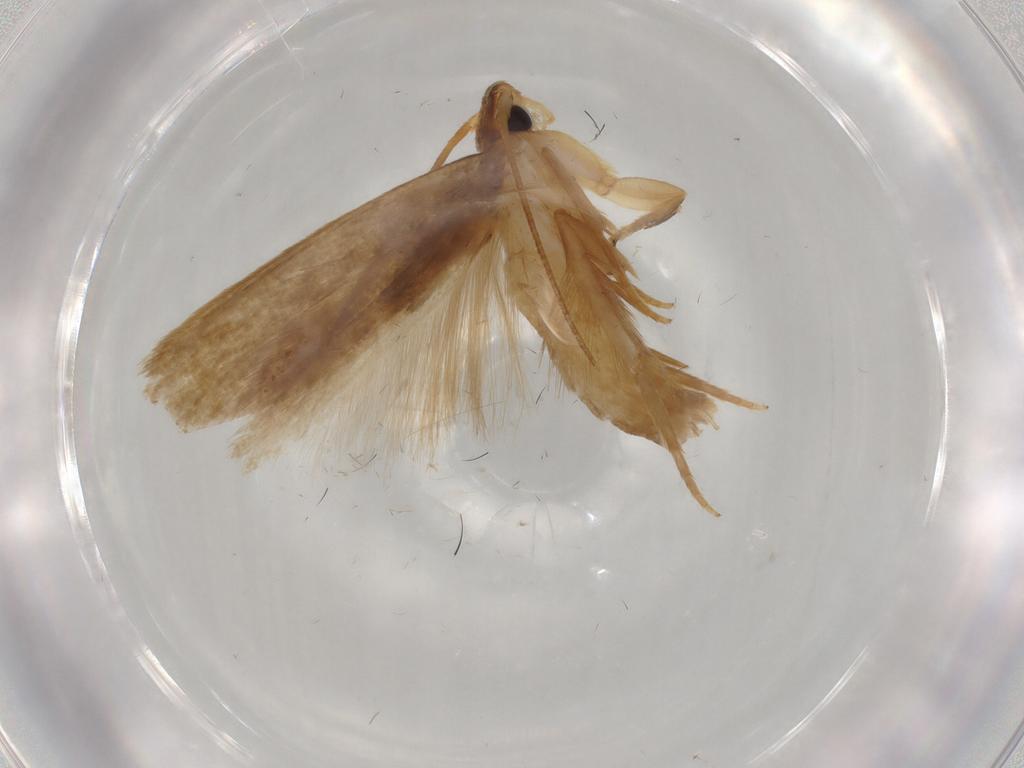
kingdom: Animalia
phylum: Arthropoda
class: Insecta
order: Lepidoptera
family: Tineidae
